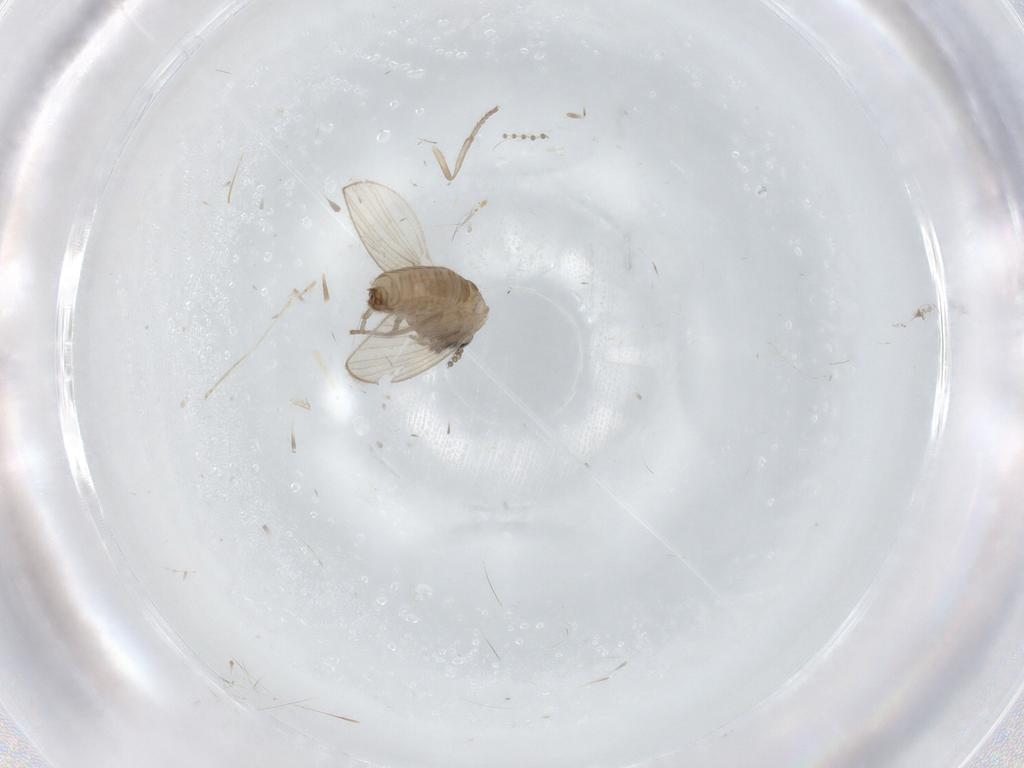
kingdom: Animalia
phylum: Arthropoda
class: Insecta
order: Diptera
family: Psychodidae
